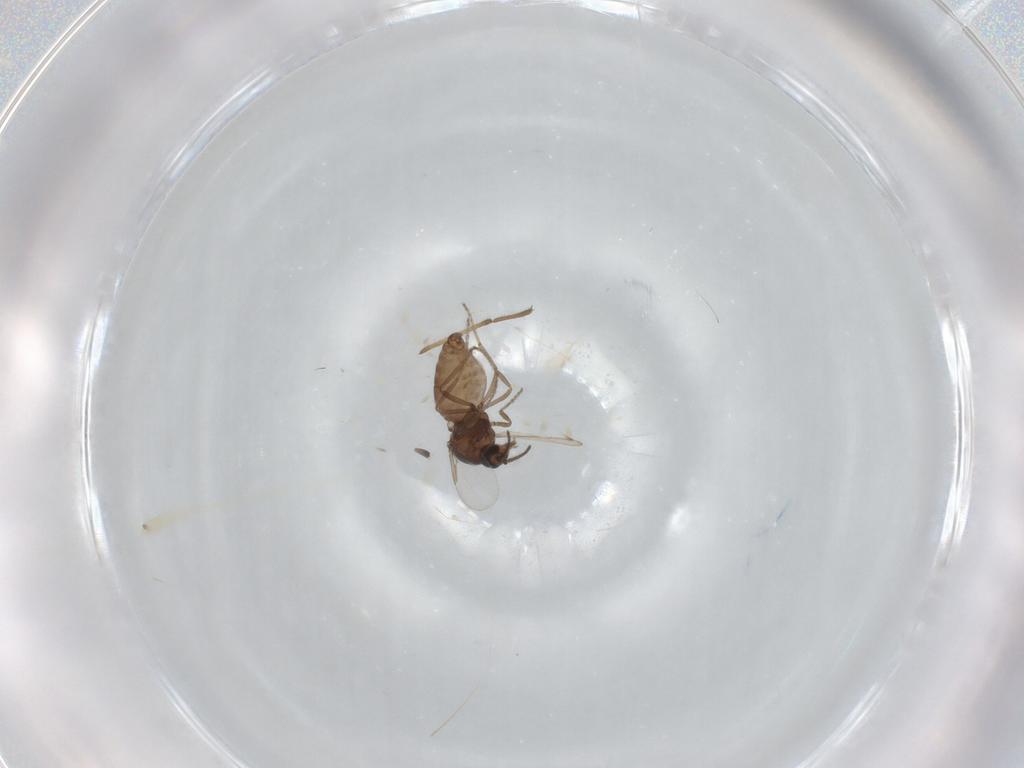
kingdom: Animalia
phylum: Arthropoda
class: Insecta
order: Diptera
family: Ceratopogonidae
